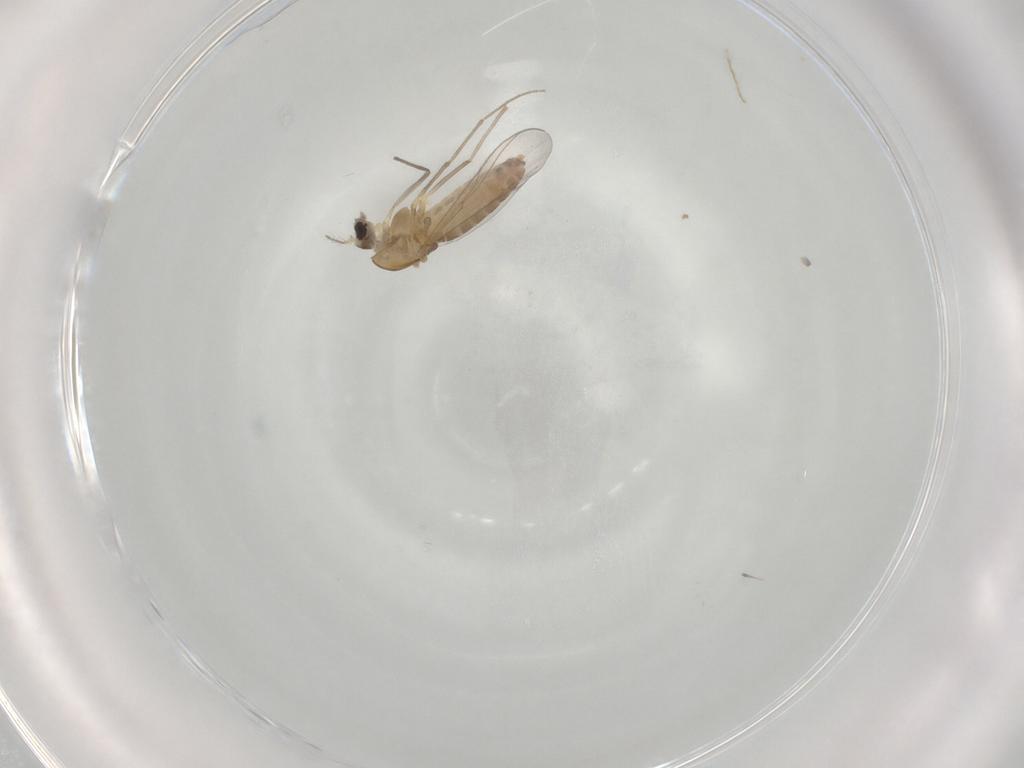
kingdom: Animalia
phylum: Arthropoda
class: Insecta
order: Diptera
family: Chironomidae
